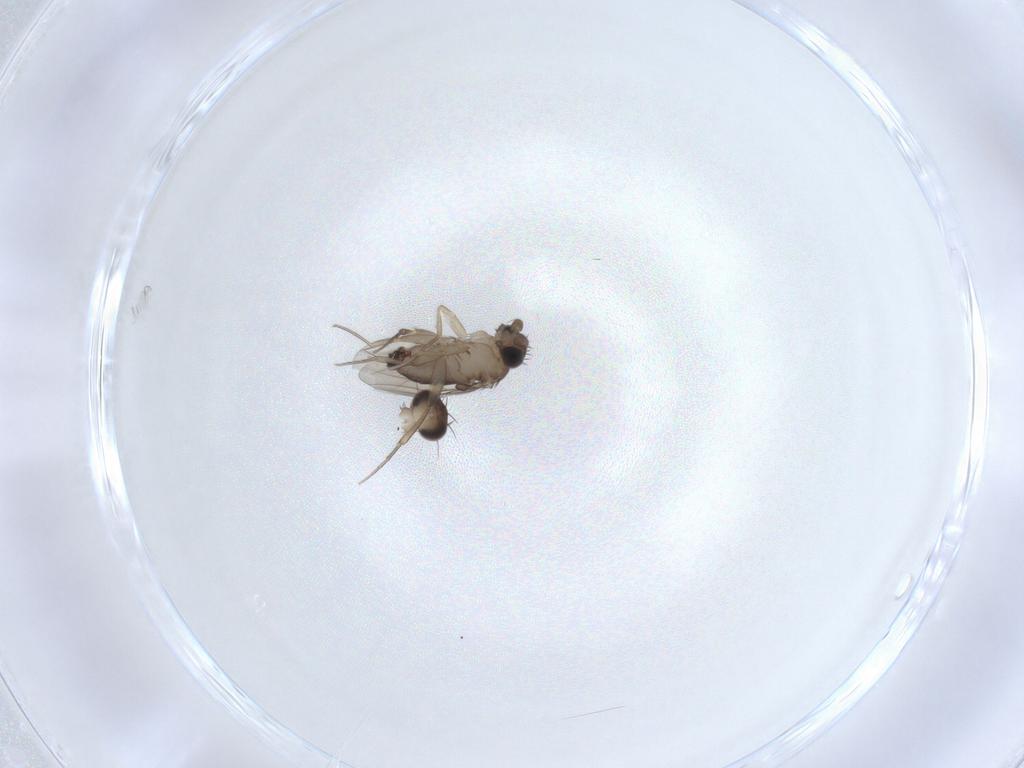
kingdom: Animalia
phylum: Arthropoda
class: Insecta
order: Diptera
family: Phoridae
